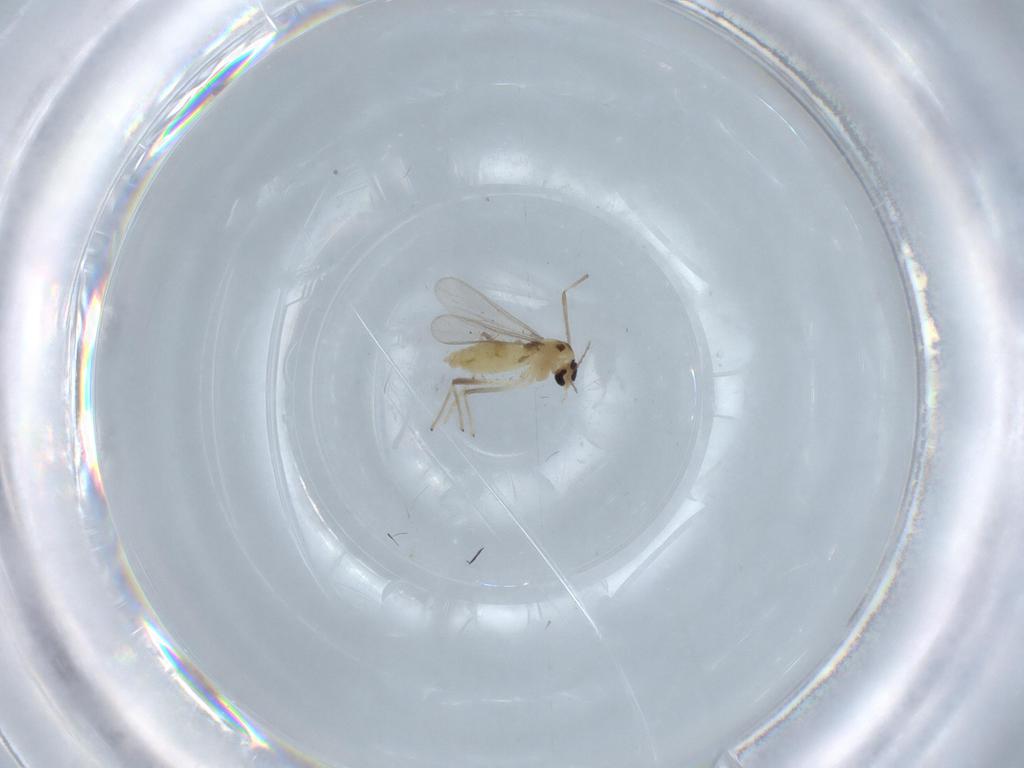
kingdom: Animalia
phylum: Arthropoda
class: Insecta
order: Diptera
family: Chironomidae
